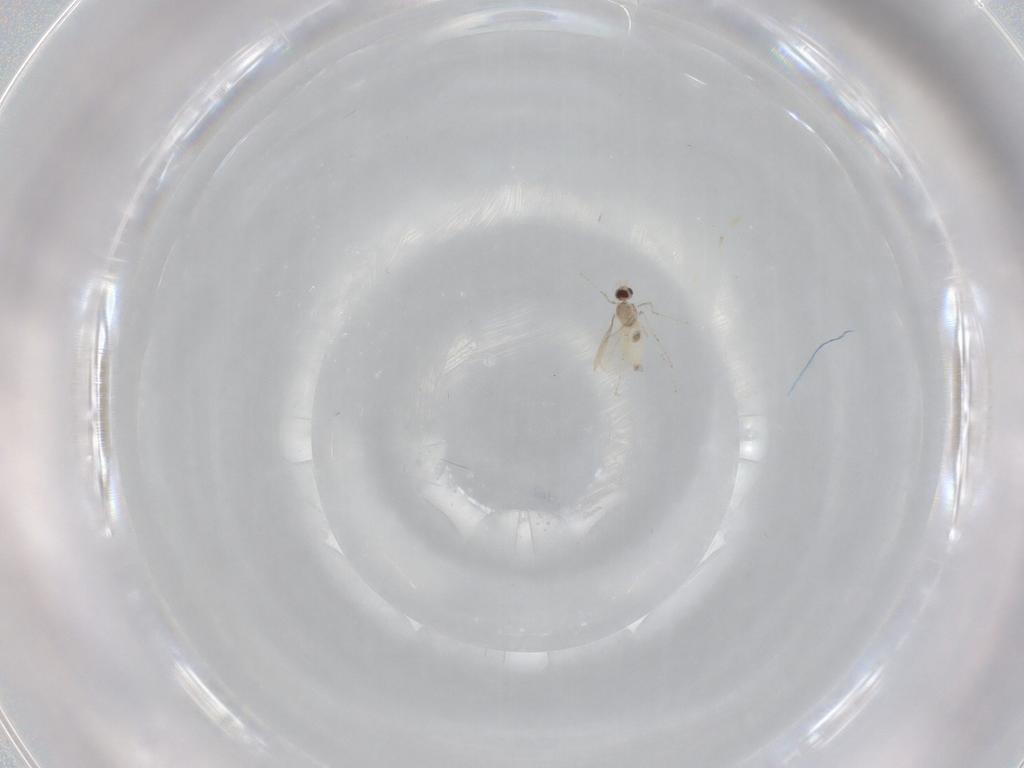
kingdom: Animalia
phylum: Arthropoda
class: Insecta
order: Diptera
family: Cecidomyiidae
